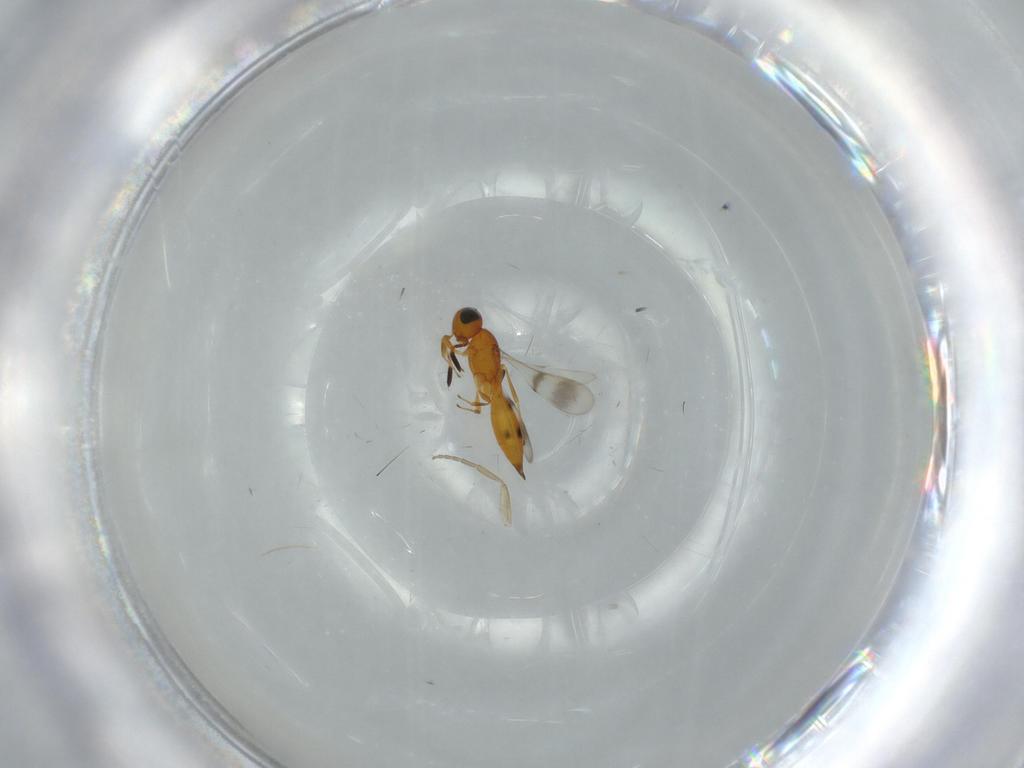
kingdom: Animalia
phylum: Arthropoda
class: Insecta
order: Hymenoptera
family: Scelionidae
